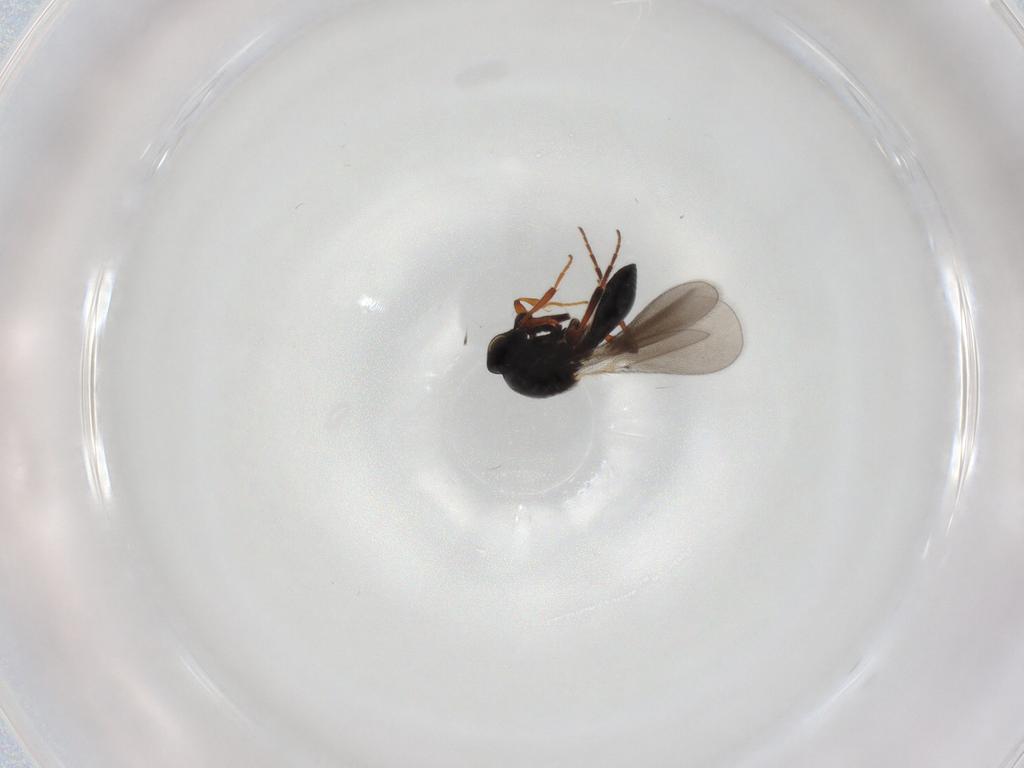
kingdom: Animalia
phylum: Arthropoda
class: Insecta
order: Hymenoptera
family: Platygastridae
